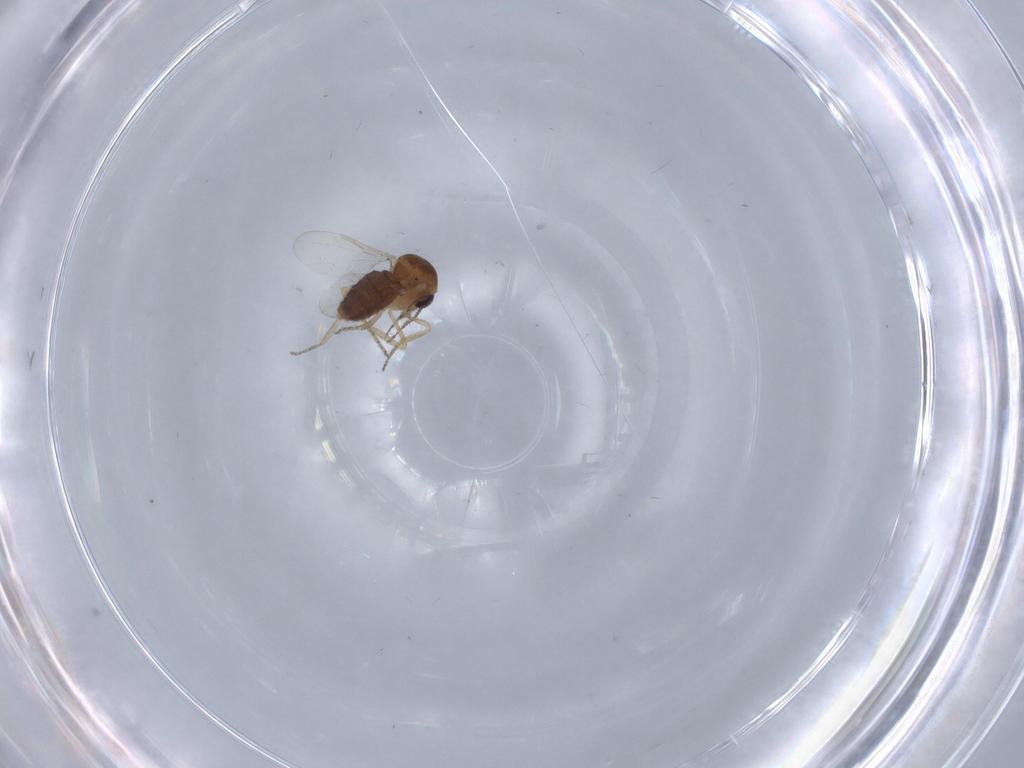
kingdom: Animalia
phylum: Arthropoda
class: Insecta
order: Diptera
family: Ceratopogonidae
